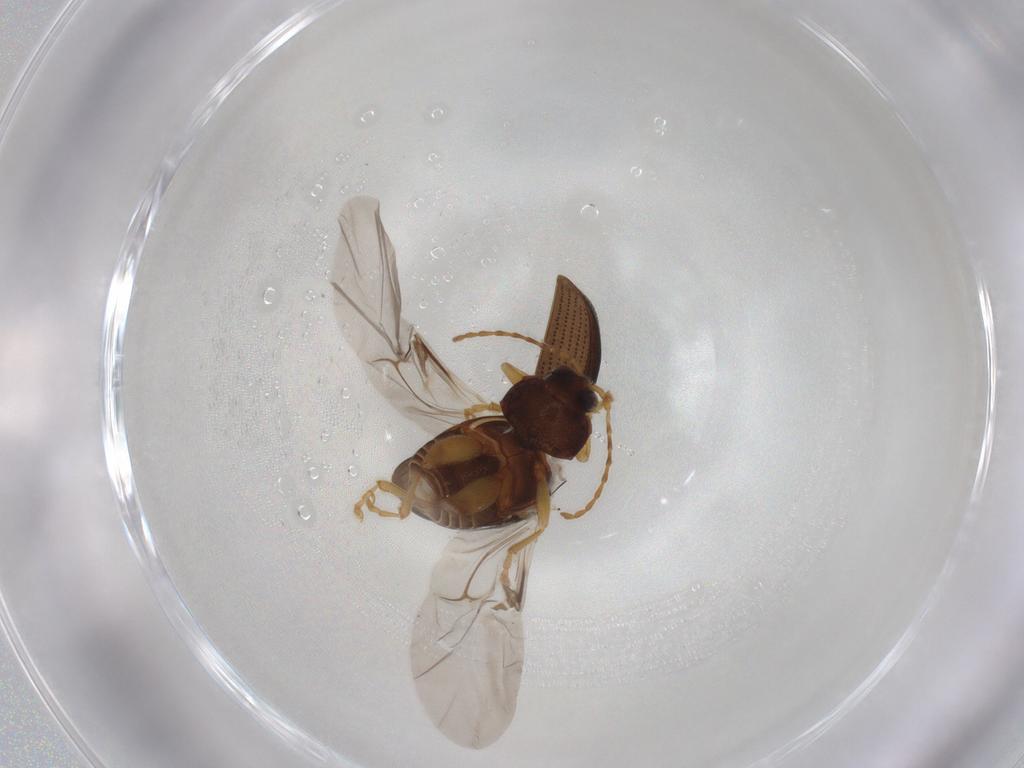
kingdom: Animalia
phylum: Arthropoda
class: Insecta
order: Coleoptera
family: Chrysomelidae
